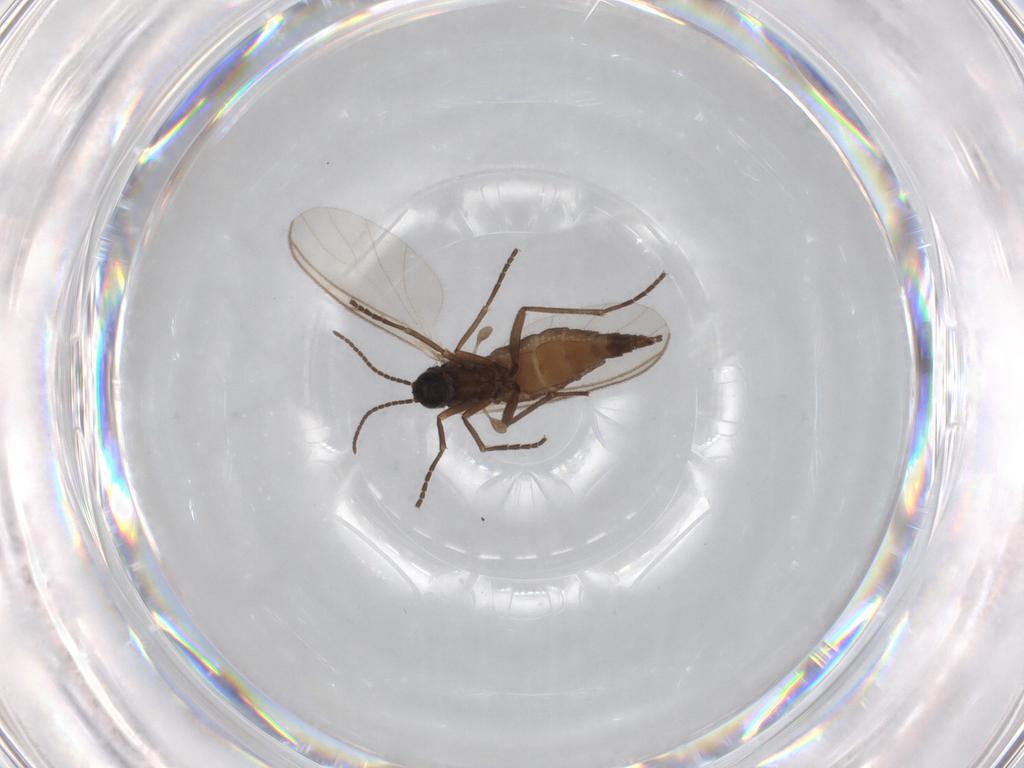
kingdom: Animalia
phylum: Arthropoda
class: Insecta
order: Diptera
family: Sciaridae
